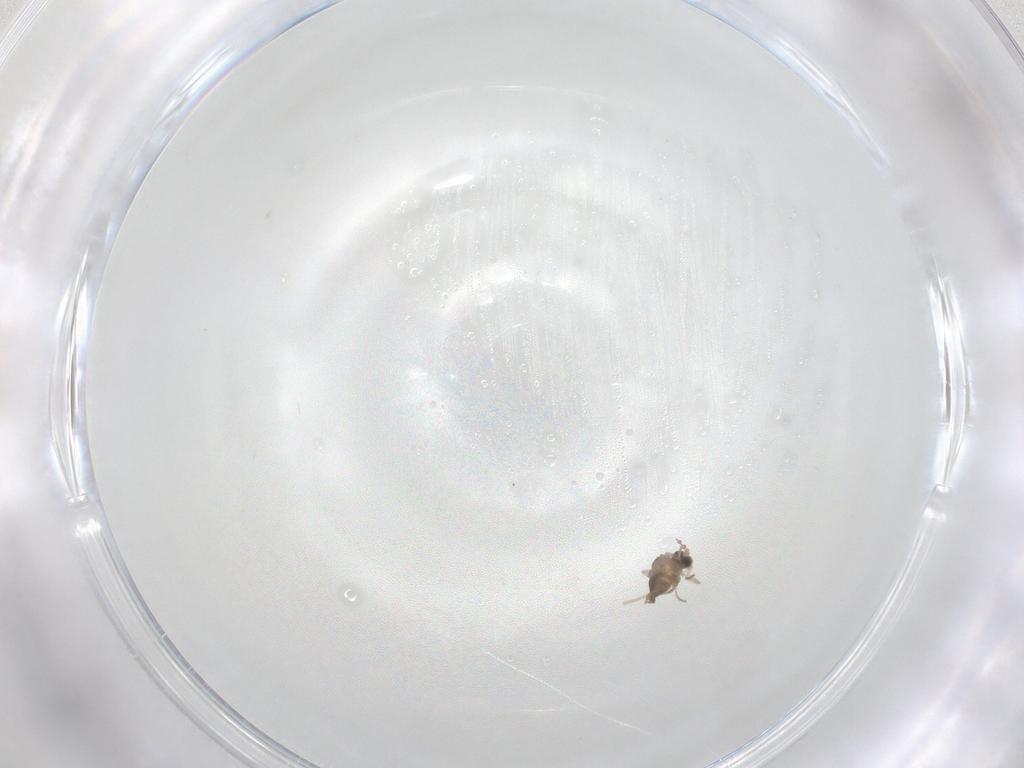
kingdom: Animalia
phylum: Arthropoda
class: Insecta
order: Diptera
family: Cecidomyiidae
